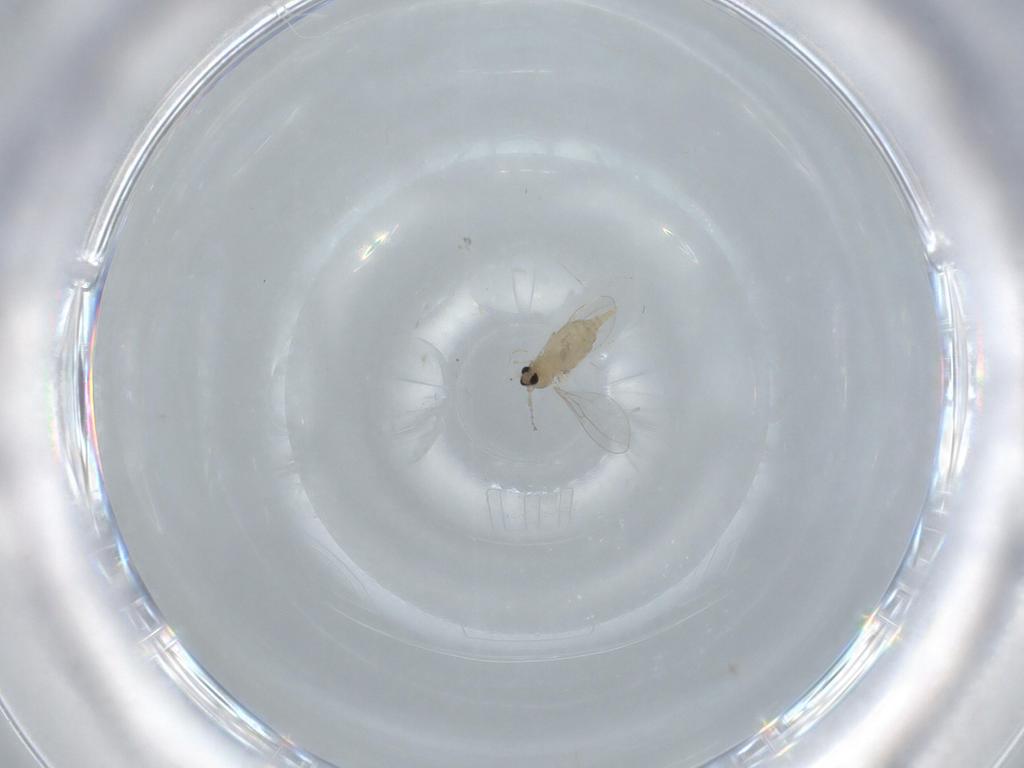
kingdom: Animalia
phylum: Arthropoda
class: Insecta
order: Diptera
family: Cecidomyiidae
